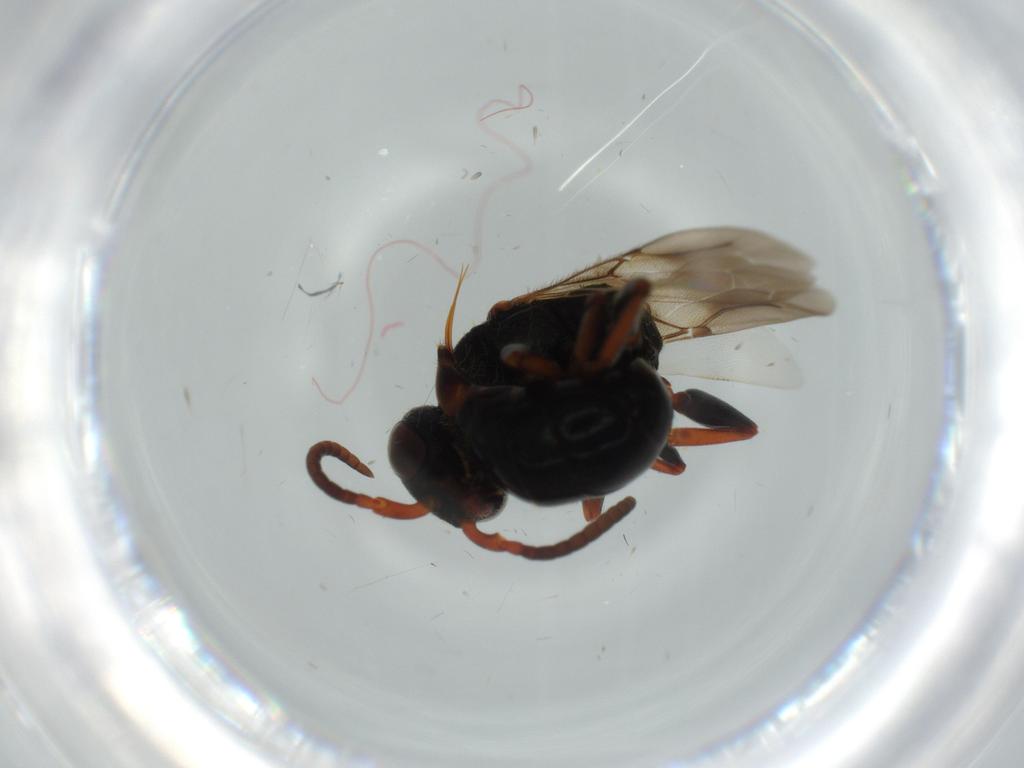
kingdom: Animalia
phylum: Arthropoda
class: Insecta
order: Hymenoptera
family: Bethylidae
